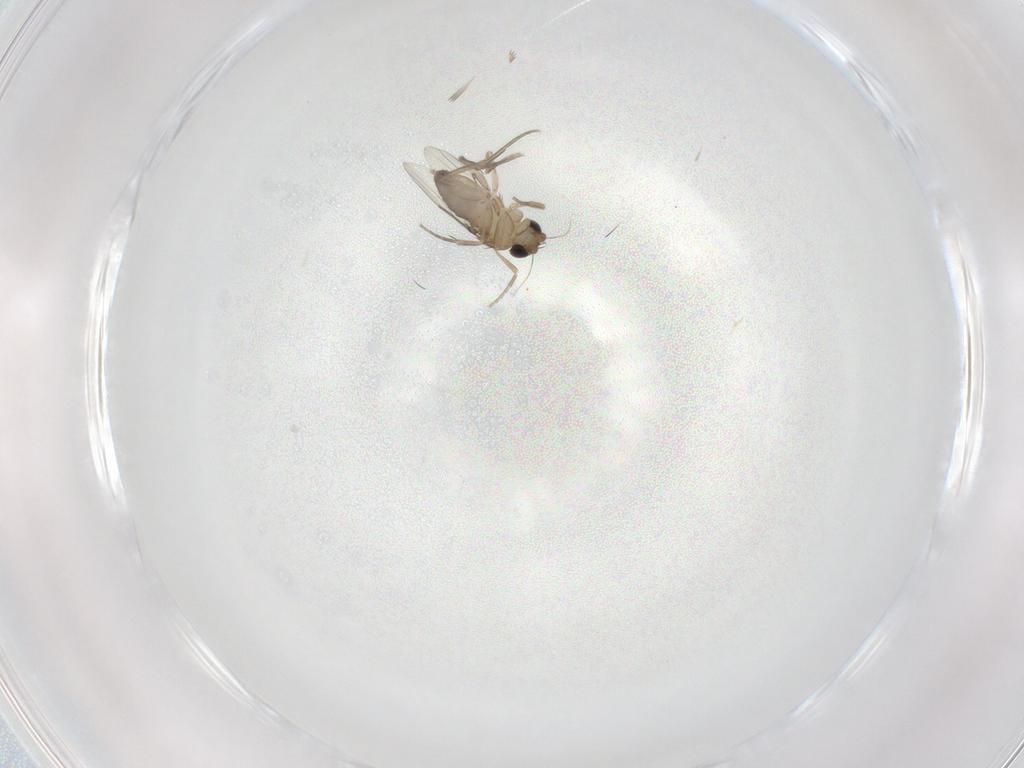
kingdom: Animalia
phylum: Arthropoda
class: Insecta
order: Diptera
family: Phoridae
